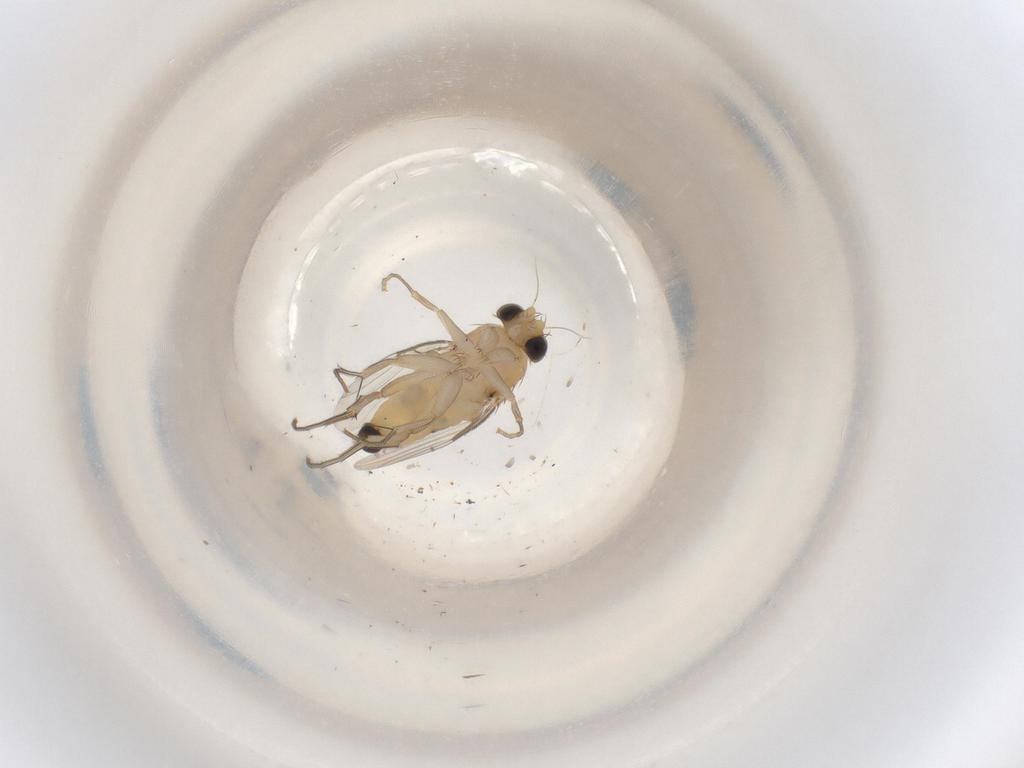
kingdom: Animalia
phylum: Arthropoda
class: Insecta
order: Diptera
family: Phoridae
